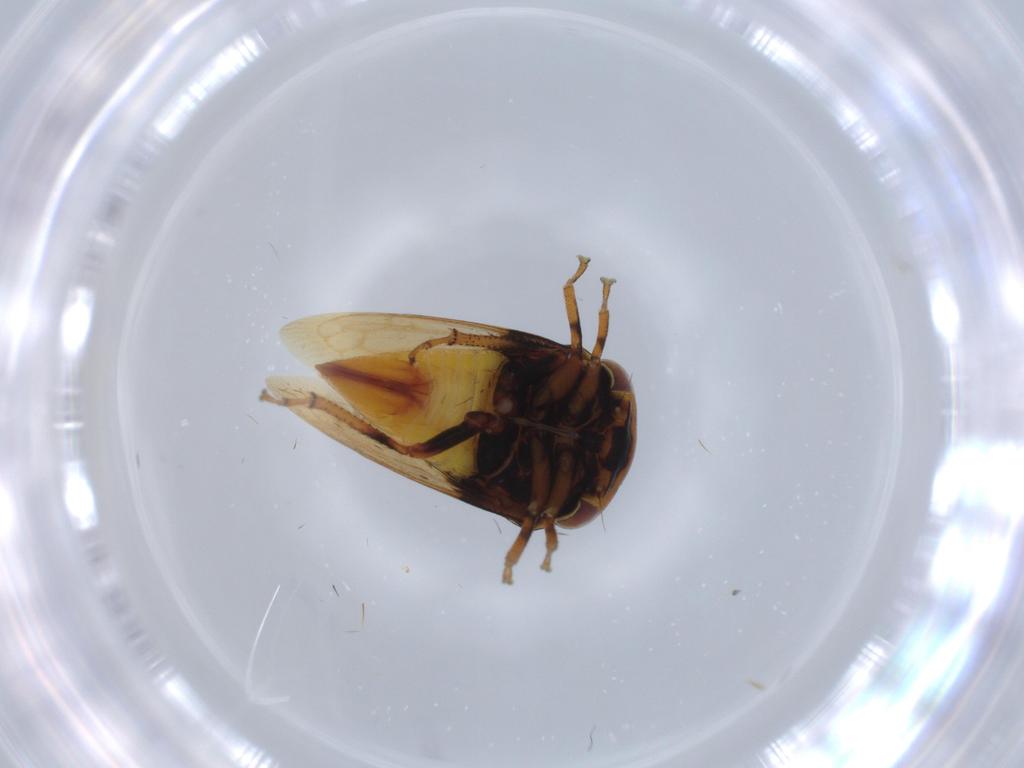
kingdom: Animalia
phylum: Arthropoda
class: Insecta
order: Hemiptera
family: Membracidae
